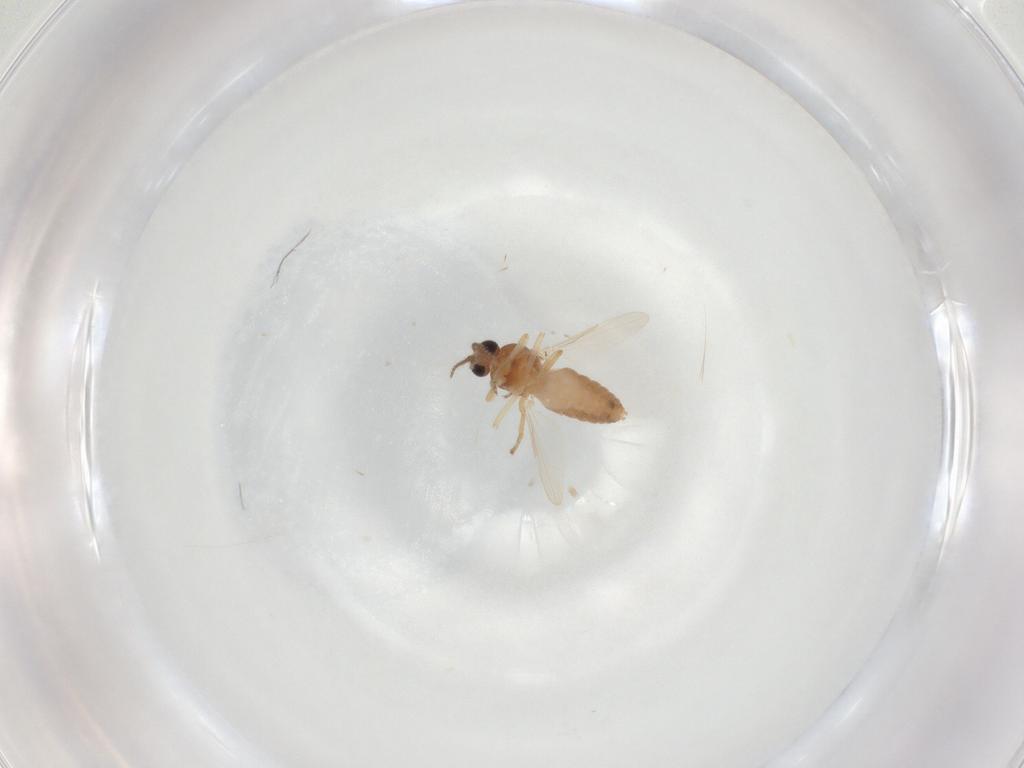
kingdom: Animalia
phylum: Arthropoda
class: Insecta
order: Diptera
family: Ceratopogonidae
